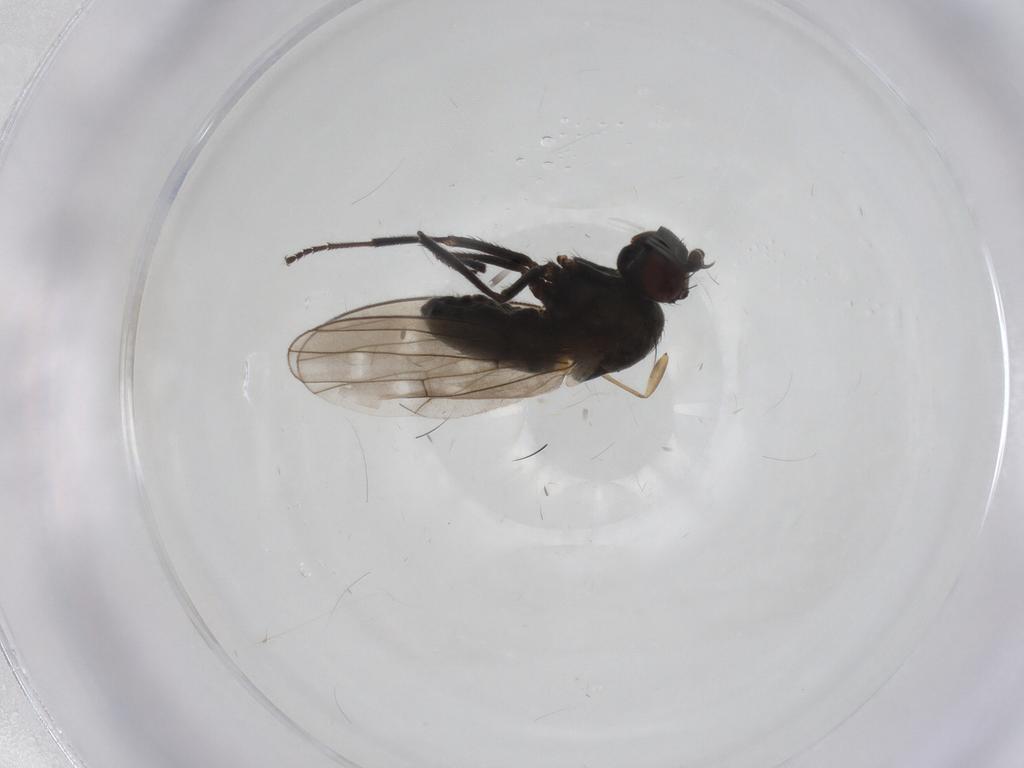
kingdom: Animalia
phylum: Arthropoda
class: Insecta
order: Diptera
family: Ephydridae
